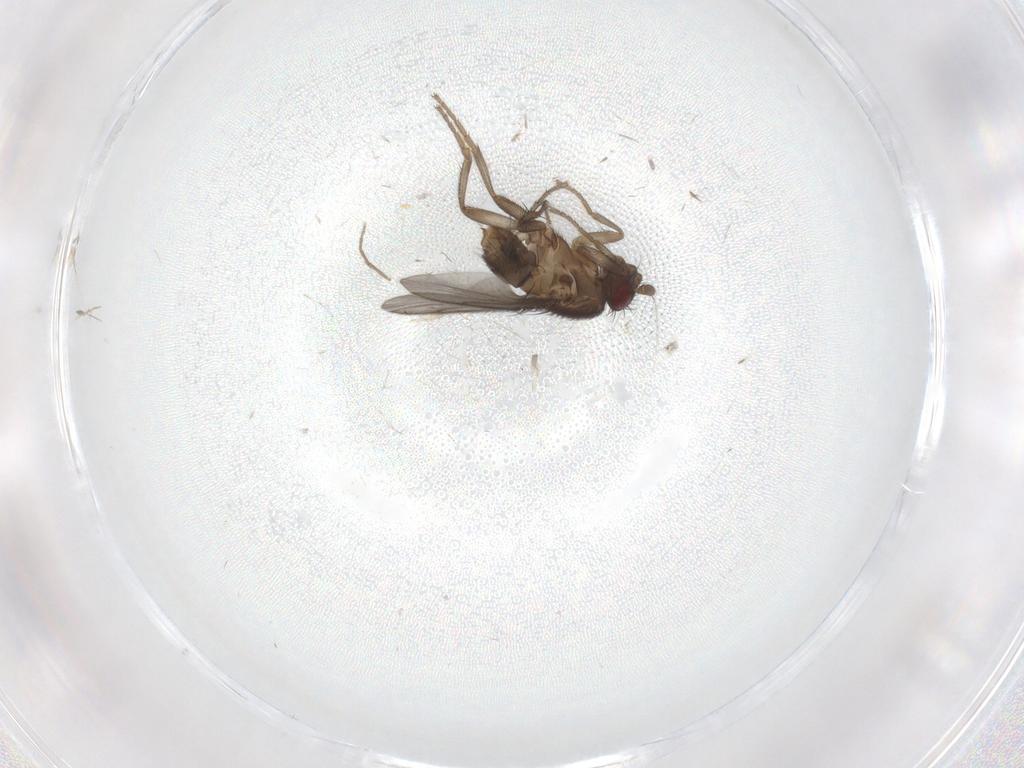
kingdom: Animalia
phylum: Arthropoda
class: Insecta
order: Diptera
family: Sphaeroceridae
